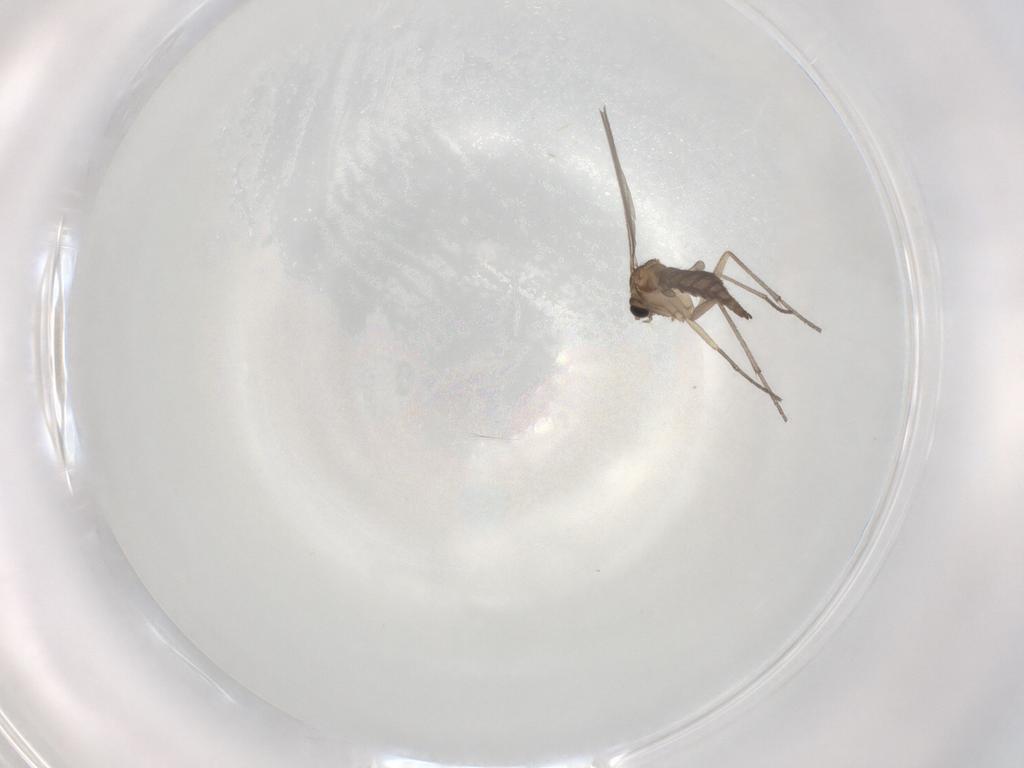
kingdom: Animalia
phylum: Arthropoda
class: Insecta
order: Diptera
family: Sciaridae
